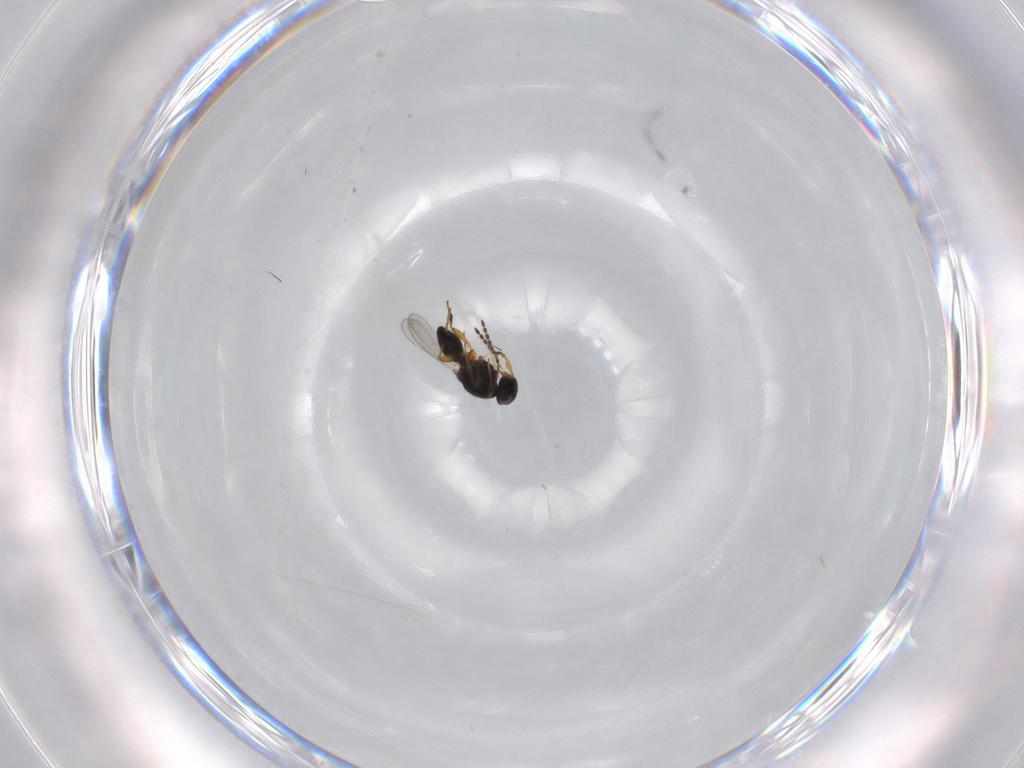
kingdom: Animalia
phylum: Arthropoda
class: Insecta
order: Hymenoptera
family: Platygastridae
